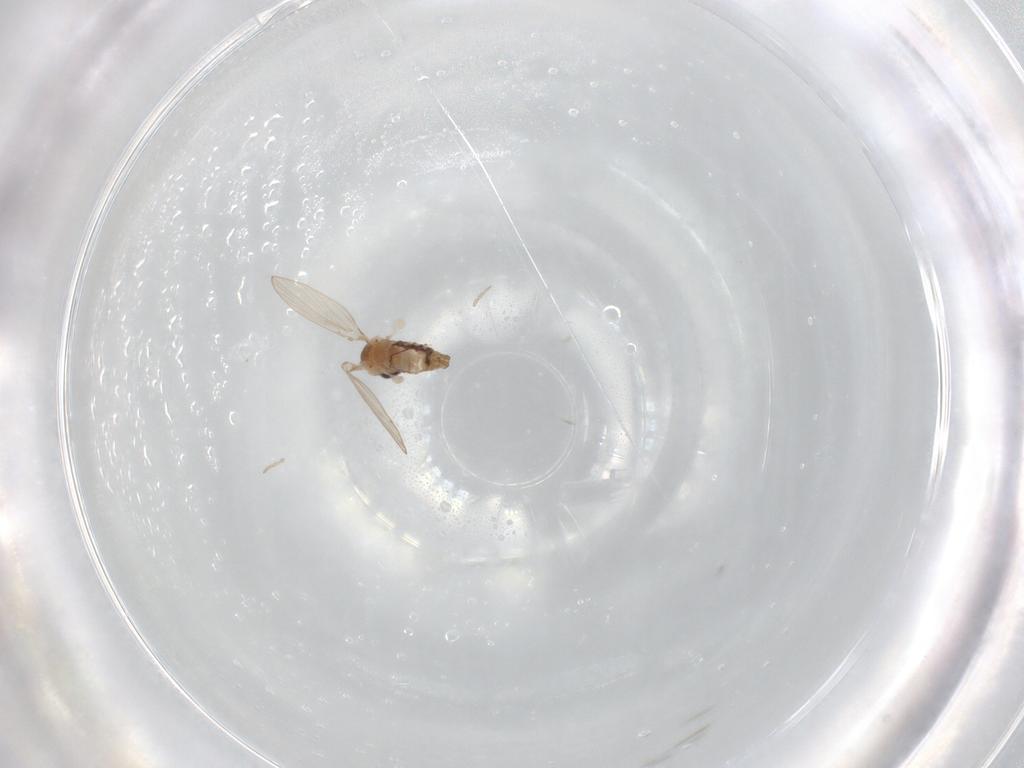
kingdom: Animalia
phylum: Arthropoda
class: Insecta
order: Diptera
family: Cecidomyiidae
